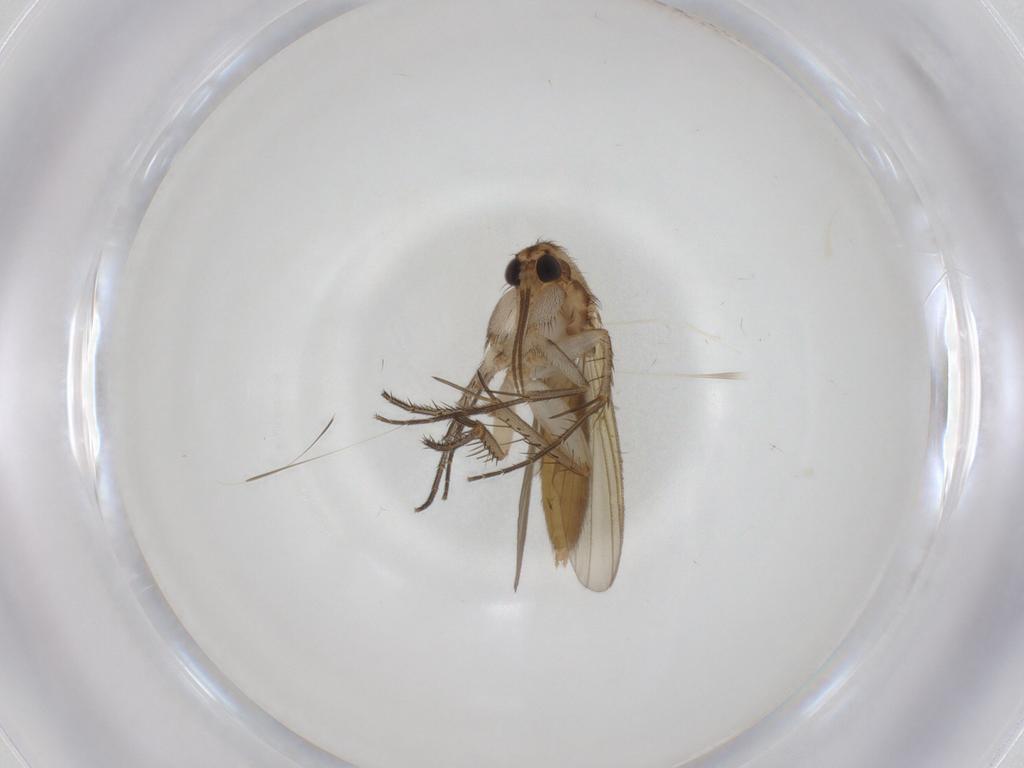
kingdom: Animalia
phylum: Arthropoda
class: Insecta
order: Diptera
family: Mycetophilidae
